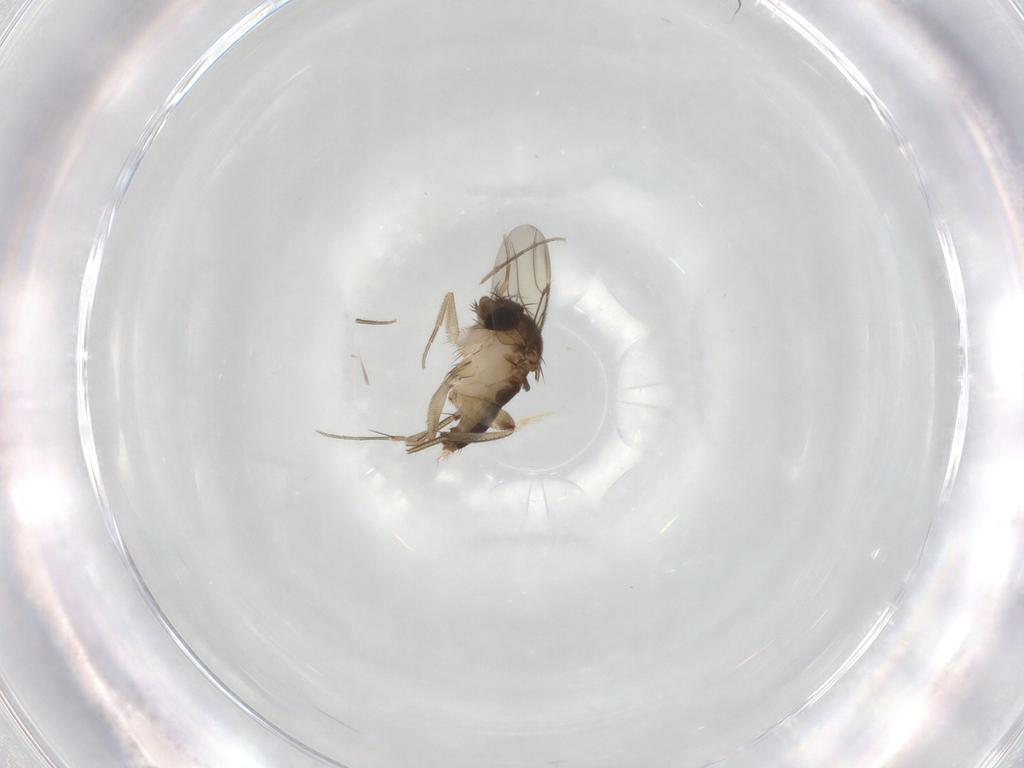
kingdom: Animalia
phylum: Arthropoda
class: Insecta
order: Diptera
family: Phoridae
